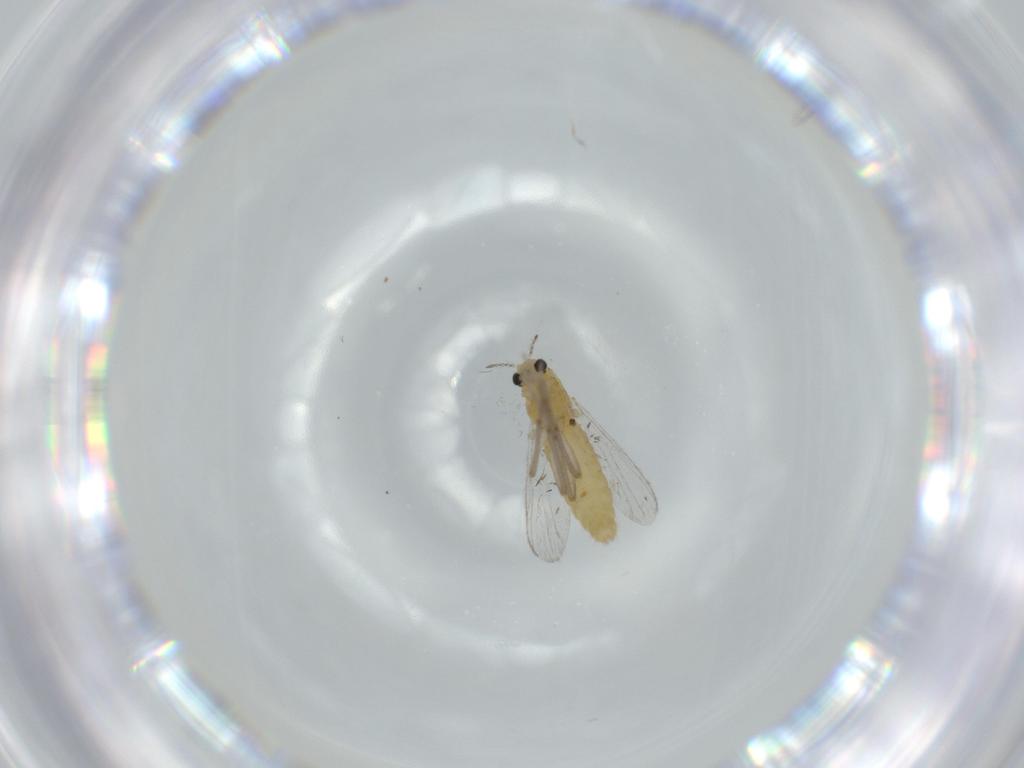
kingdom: Animalia
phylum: Arthropoda
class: Insecta
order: Diptera
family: Chironomidae
